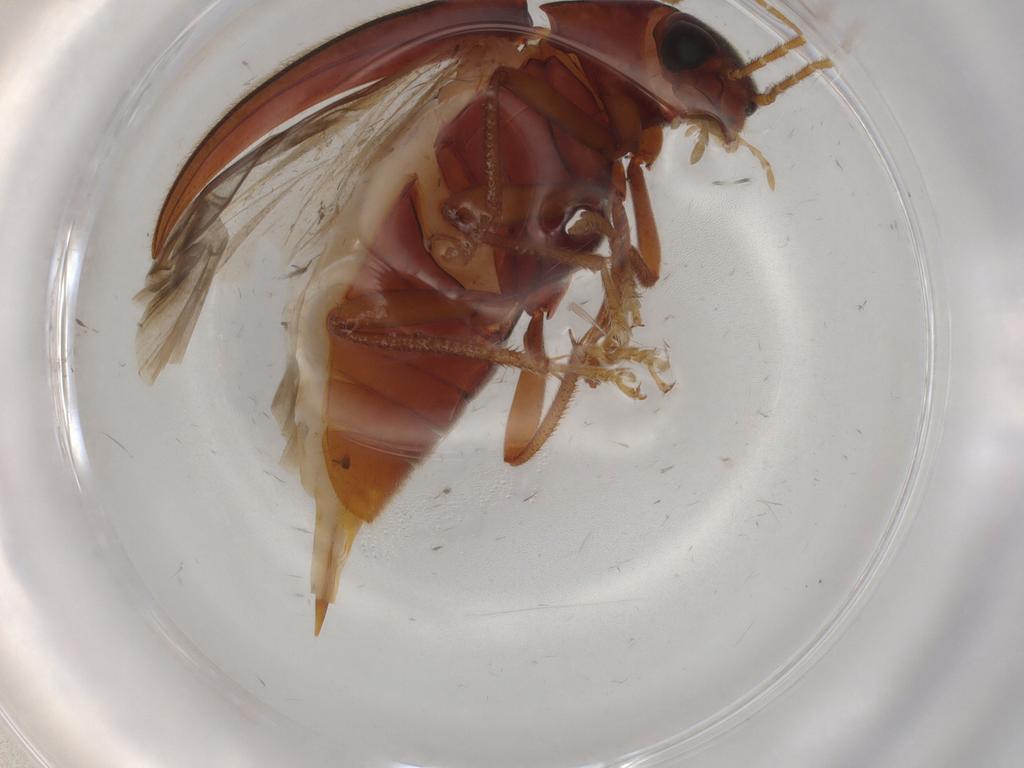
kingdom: Animalia
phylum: Arthropoda
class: Insecta
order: Coleoptera
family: Ptilodactylidae
